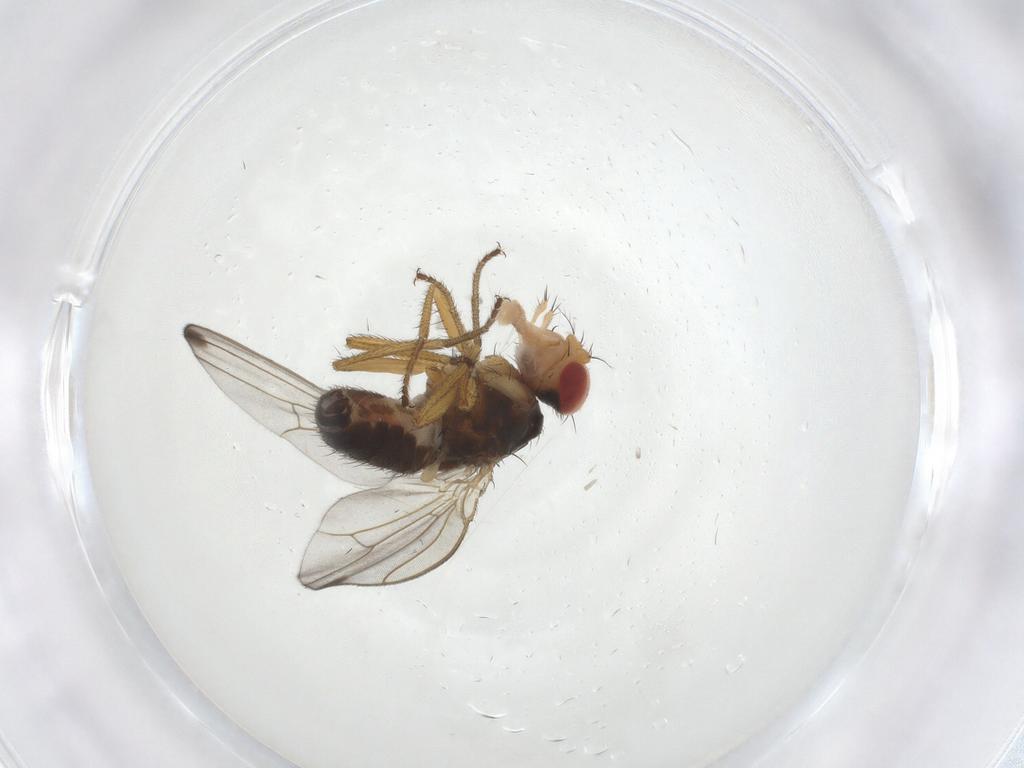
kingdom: Animalia
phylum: Arthropoda
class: Insecta
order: Diptera
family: Drosophilidae
